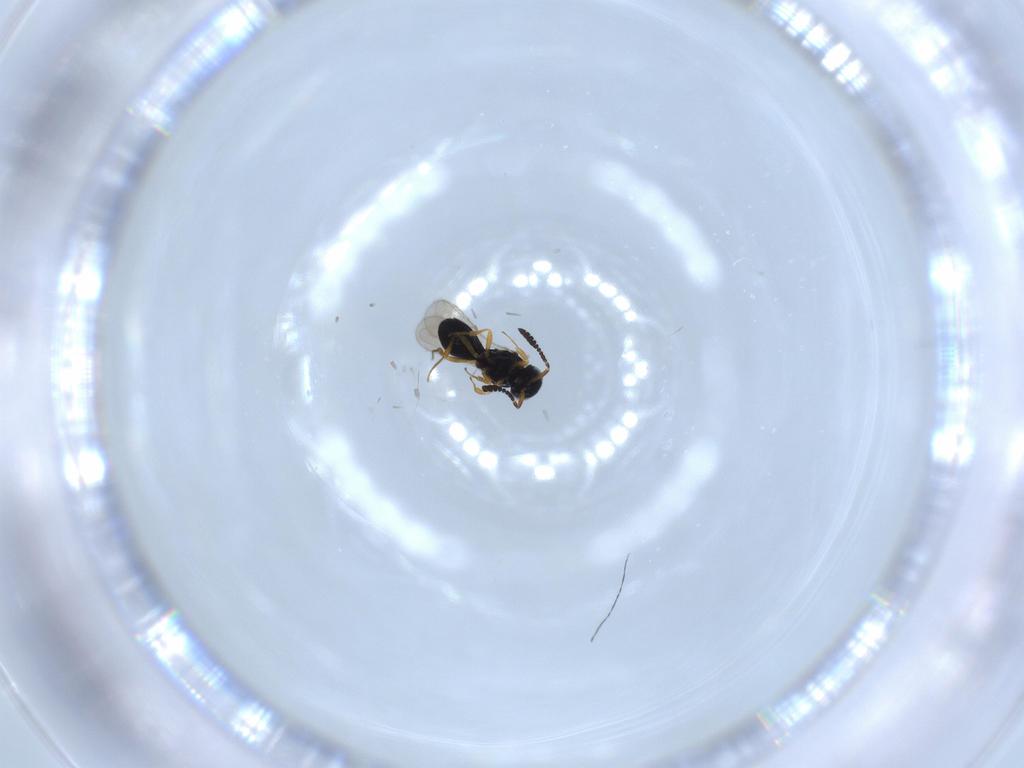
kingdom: Animalia
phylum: Arthropoda
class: Insecta
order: Hymenoptera
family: Scelionidae
